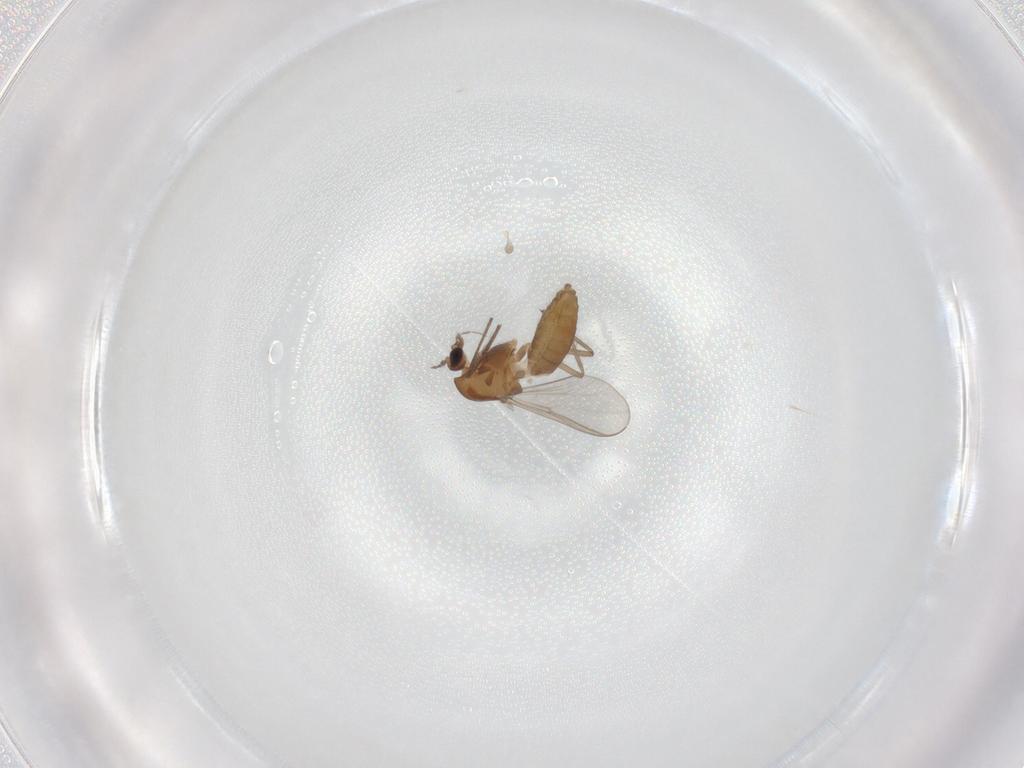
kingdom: Animalia
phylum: Arthropoda
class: Insecta
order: Diptera
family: Chironomidae
